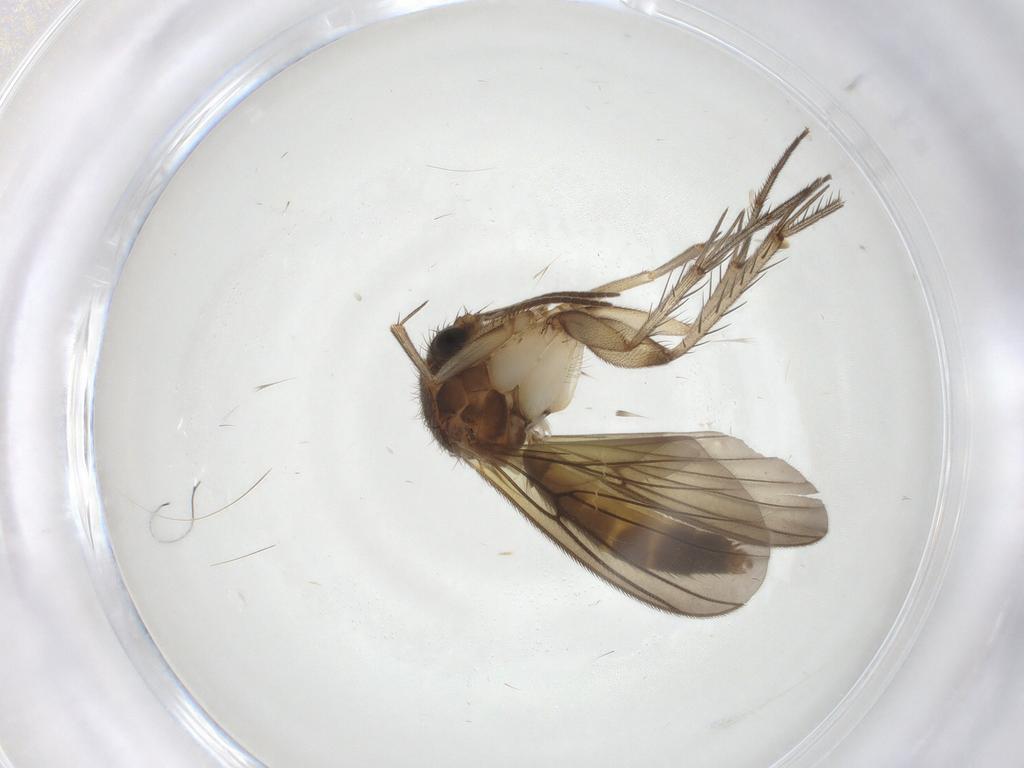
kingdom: Animalia
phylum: Arthropoda
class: Insecta
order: Diptera
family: Mycetophilidae
